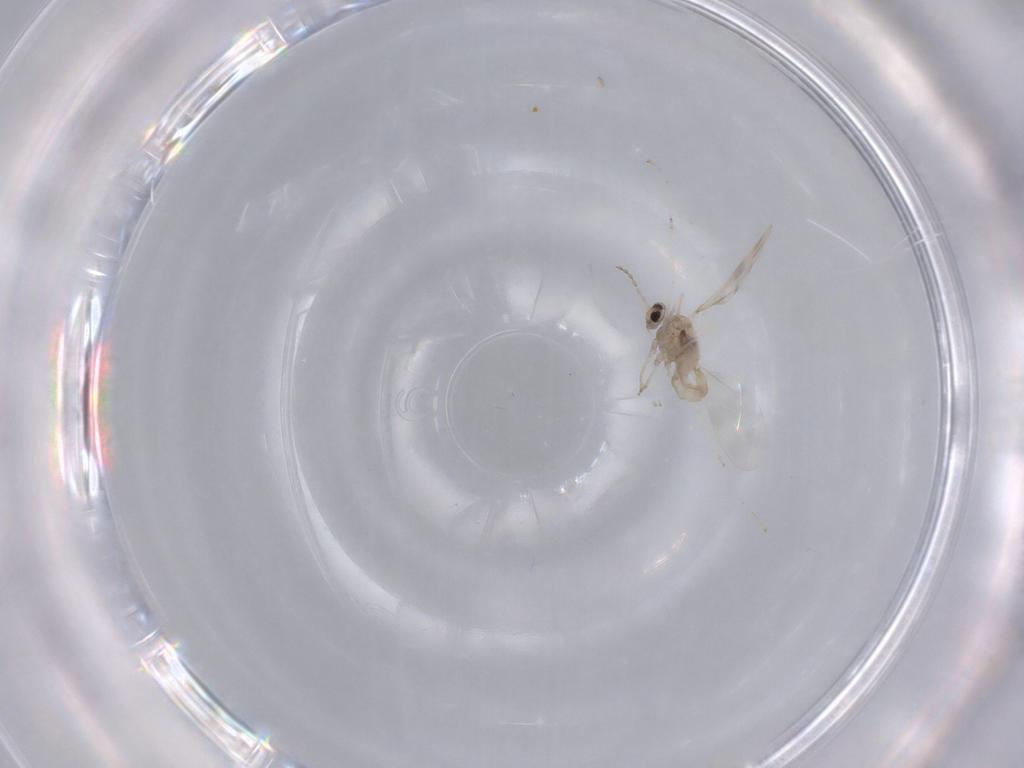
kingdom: Animalia
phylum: Arthropoda
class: Insecta
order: Diptera
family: Cecidomyiidae
